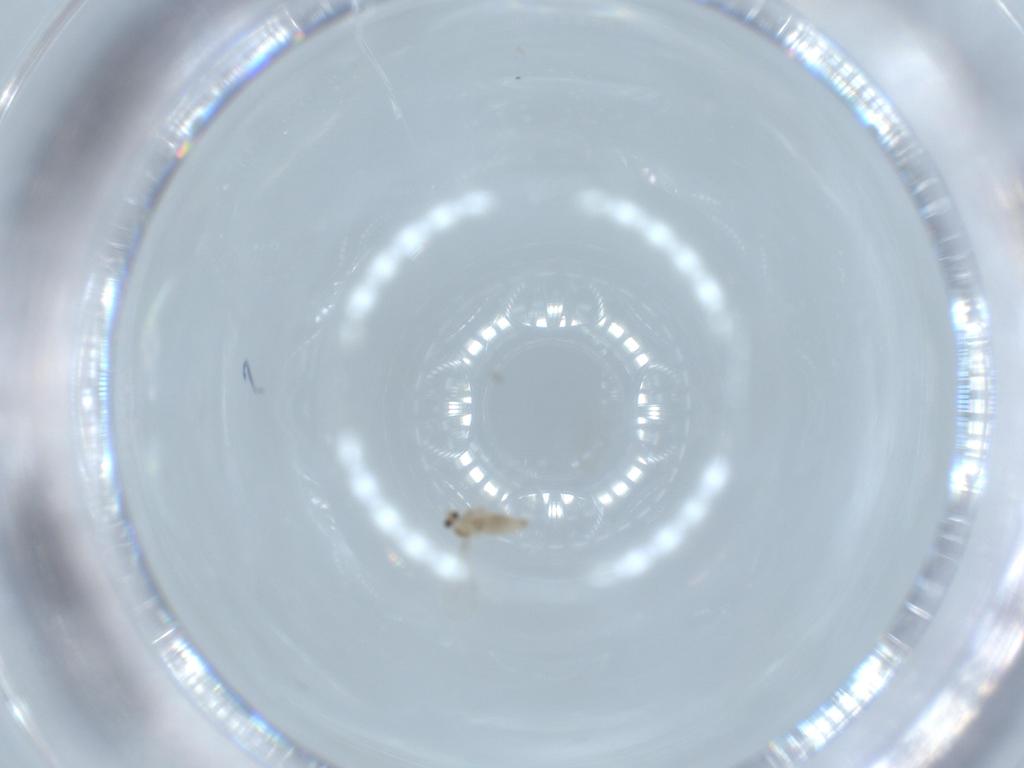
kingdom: Animalia
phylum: Arthropoda
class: Insecta
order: Diptera
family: Cecidomyiidae
